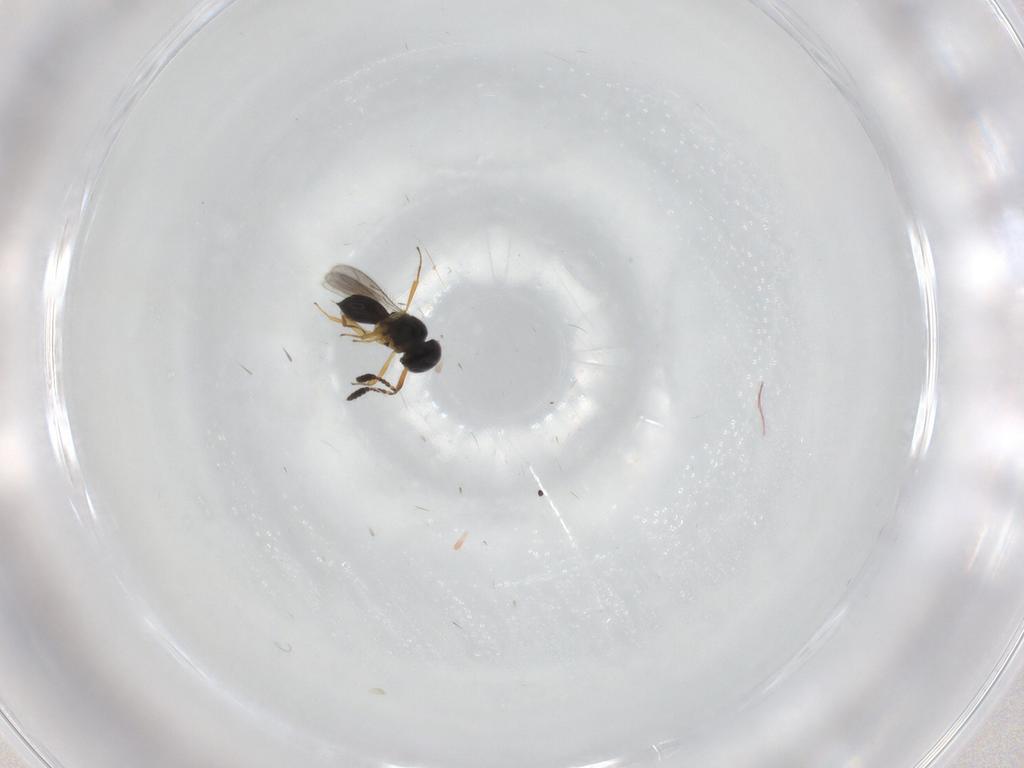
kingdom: Animalia
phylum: Arthropoda
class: Insecta
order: Hymenoptera
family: Scelionidae
